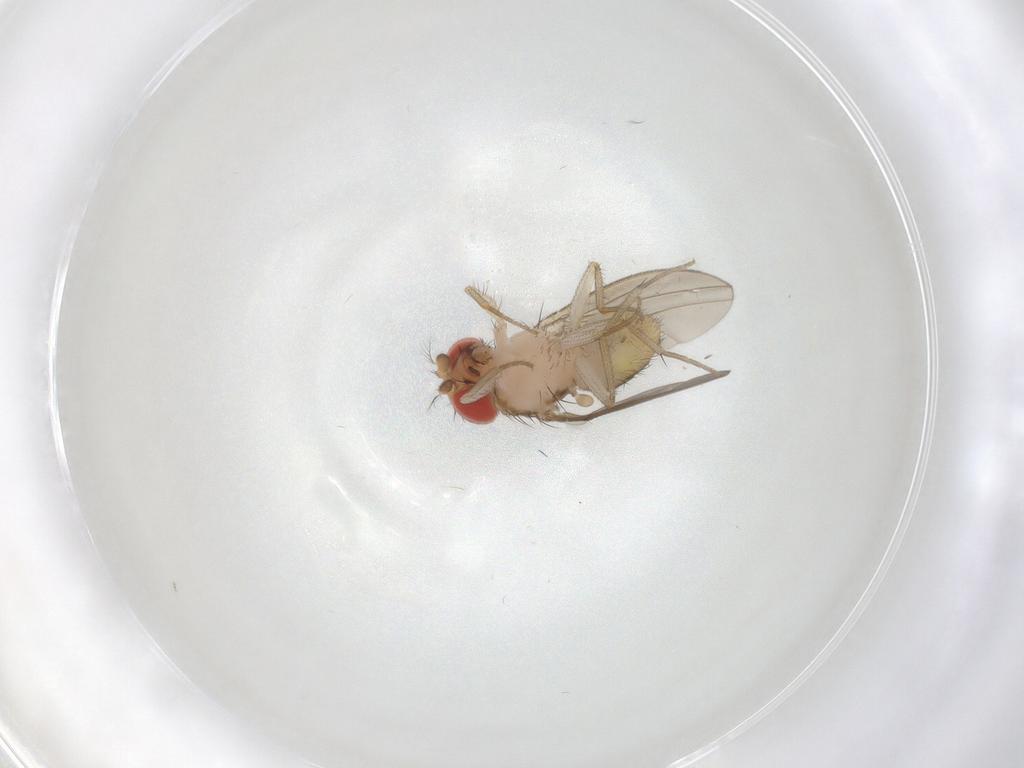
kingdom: Animalia
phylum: Arthropoda
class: Insecta
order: Diptera
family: Drosophilidae
